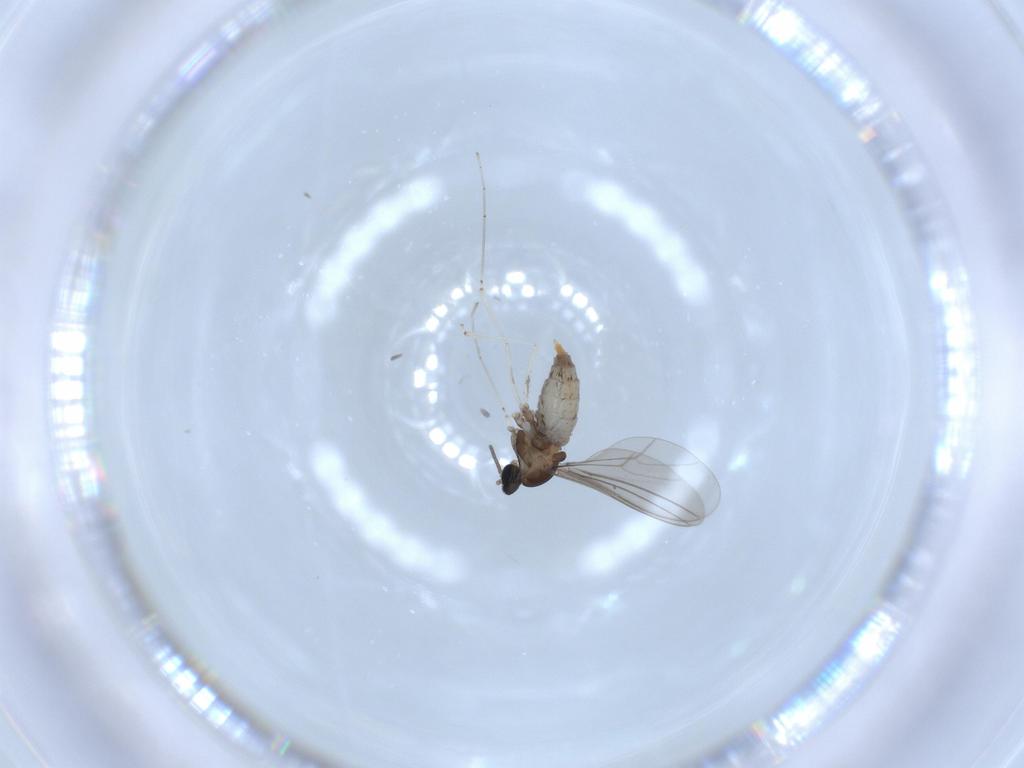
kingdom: Animalia
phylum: Arthropoda
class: Insecta
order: Diptera
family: Cecidomyiidae
